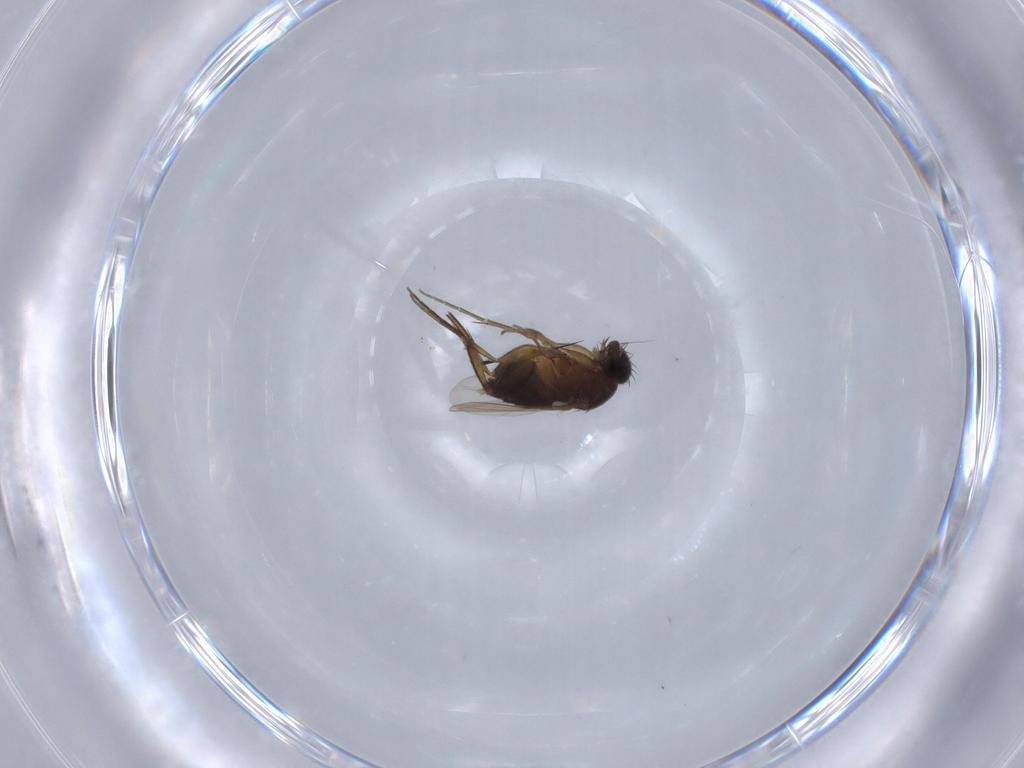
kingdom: Animalia
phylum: Arthropoda
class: Insecta
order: Diptera
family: Phoridae
